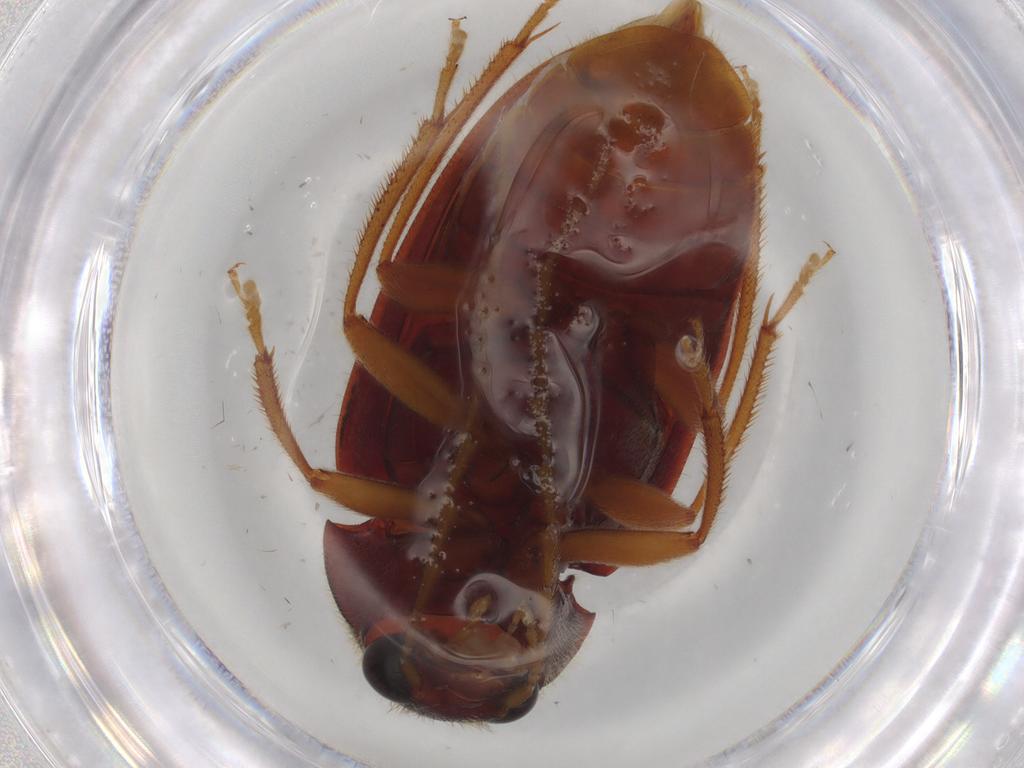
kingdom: Animalia
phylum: Arthropoda
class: Insecta
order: Coleoptera
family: Ptilodactylidae
